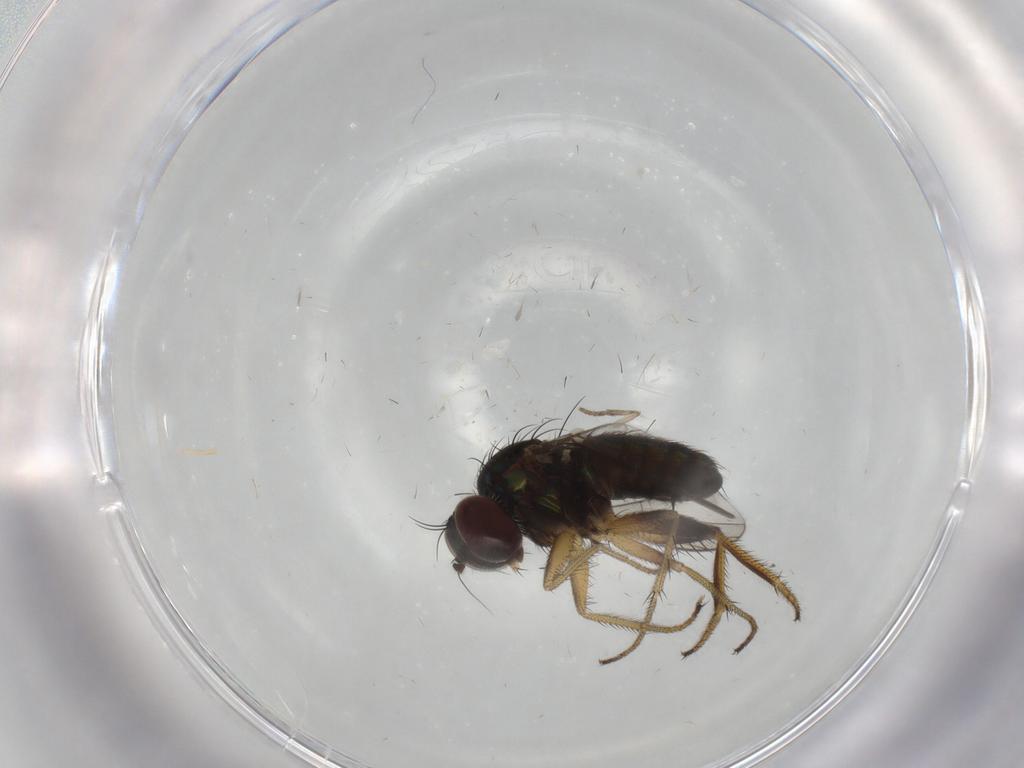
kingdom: Animalia
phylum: Arthropoda
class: Insecta
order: Diptera
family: Dolichopodidae
